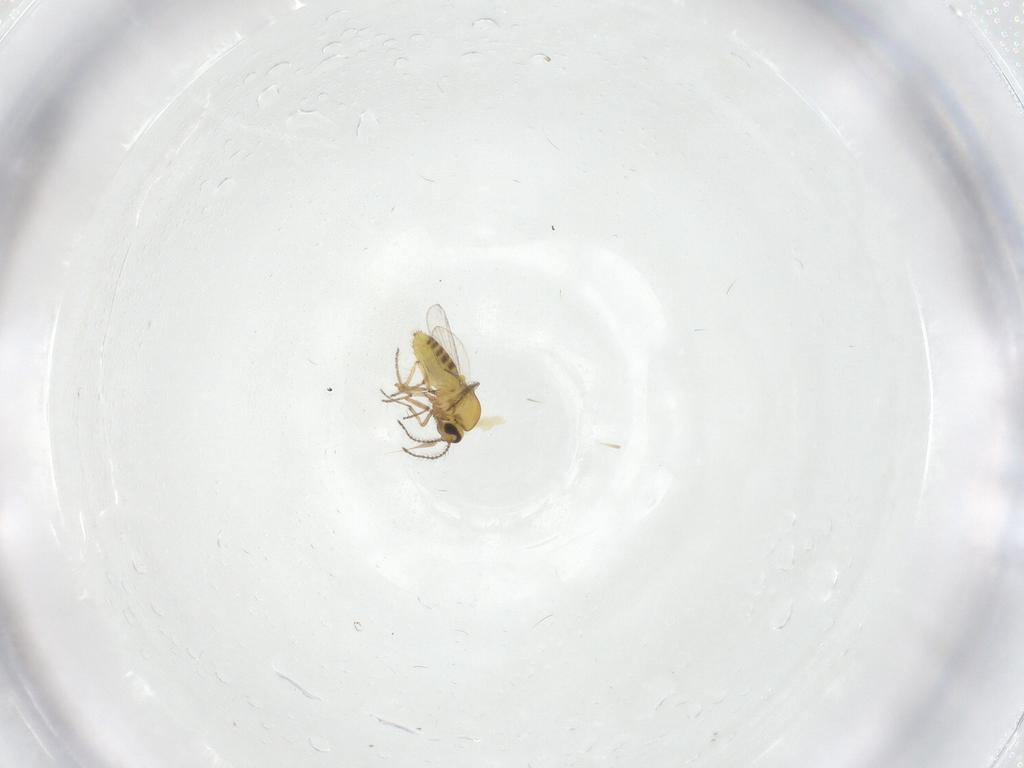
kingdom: Animalia
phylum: Arthropoda
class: Insecta
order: Diptera
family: Ceratopogonidae
